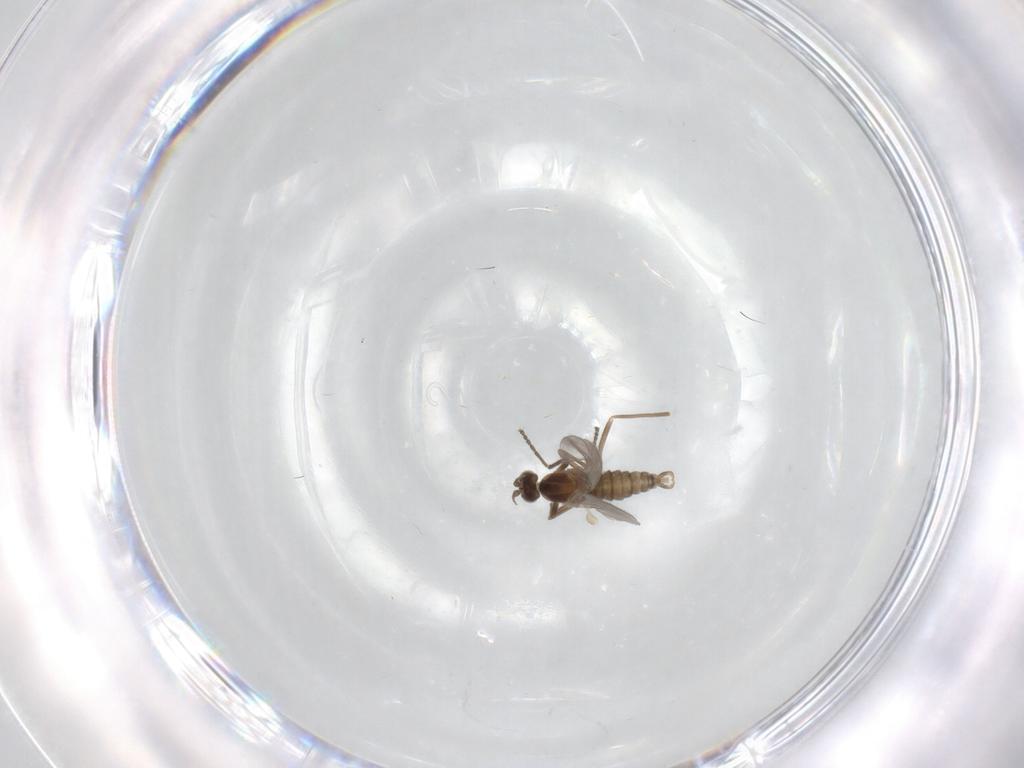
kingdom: Animalia
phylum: Arthropoda
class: Insecta
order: Diptera
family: Cecidomyiidae
